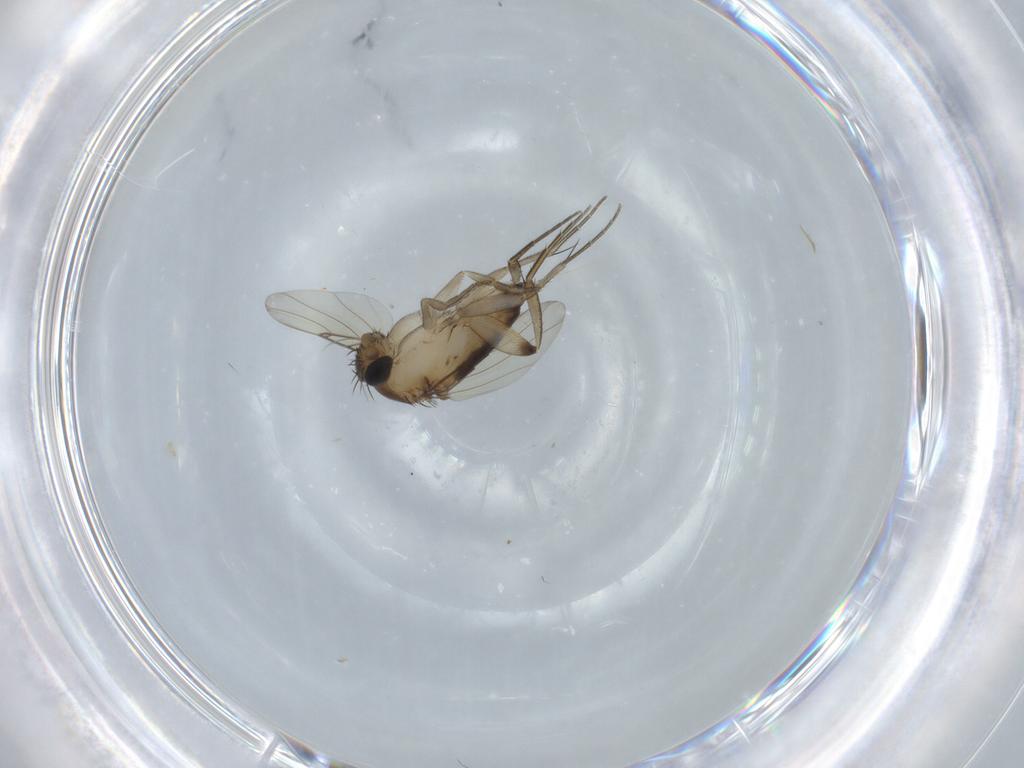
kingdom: Animalia
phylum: Arthropoda
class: Insecta
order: Diptera
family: Phoridae
